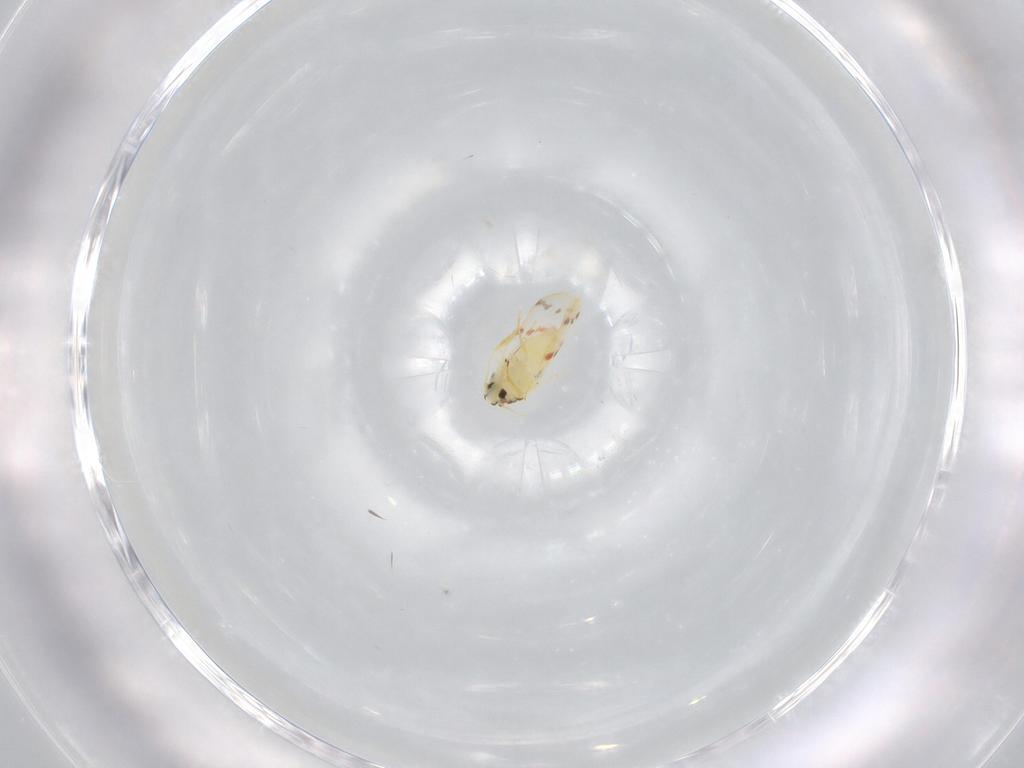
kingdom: Animalia
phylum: Arthropoda
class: Insecta
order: Hemiptera
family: Aleyrodidae
